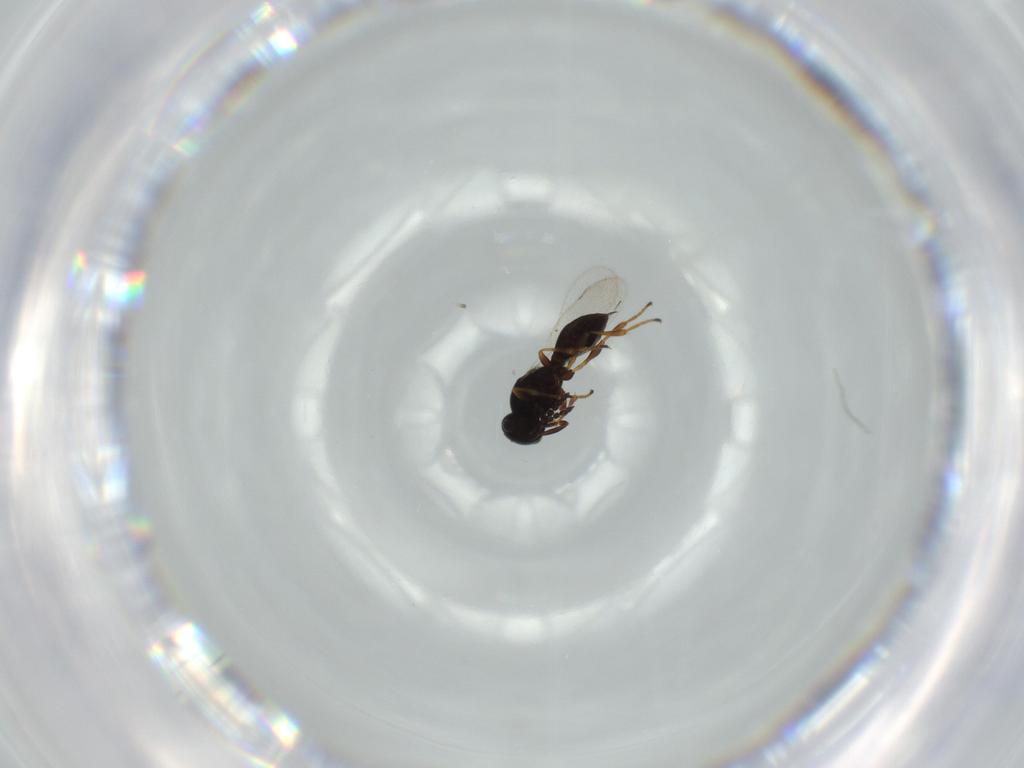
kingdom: Animalia
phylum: Arthropoda
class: Insecta
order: Hymenoptera
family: Platygastridae
